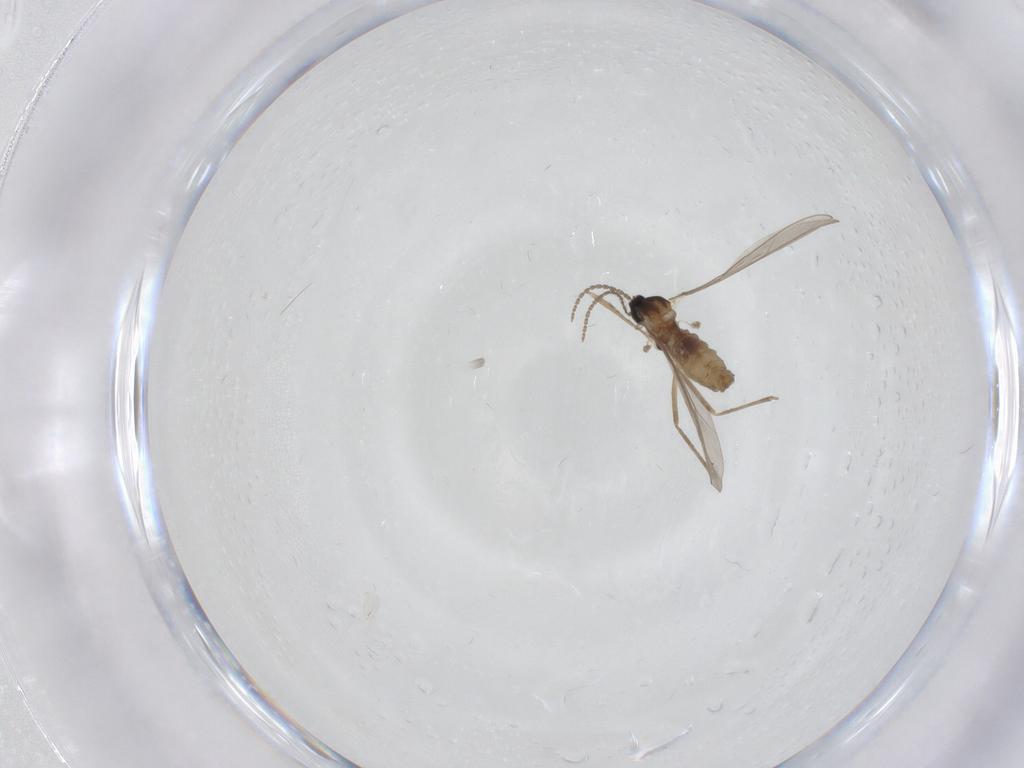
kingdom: Animalia
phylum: Arthropoda
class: Insecta
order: Diptera
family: Cecidomyiidae
